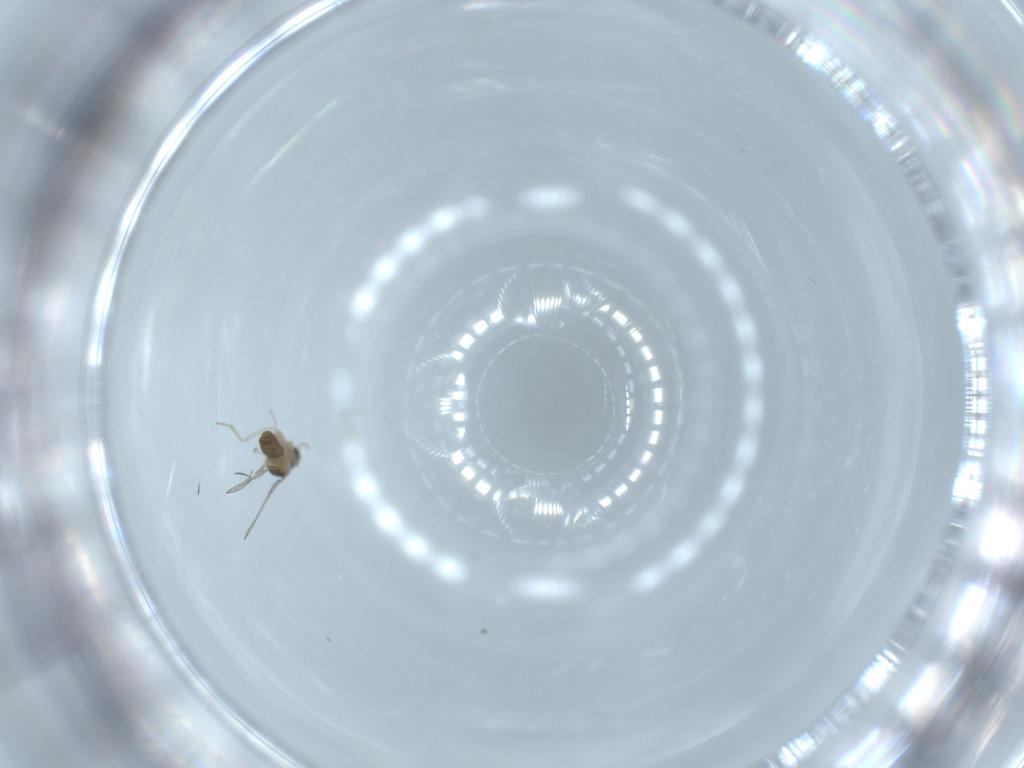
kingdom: Animalia
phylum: Arthropoda
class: Insecta
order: Diptera
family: Cecidomyiidae
